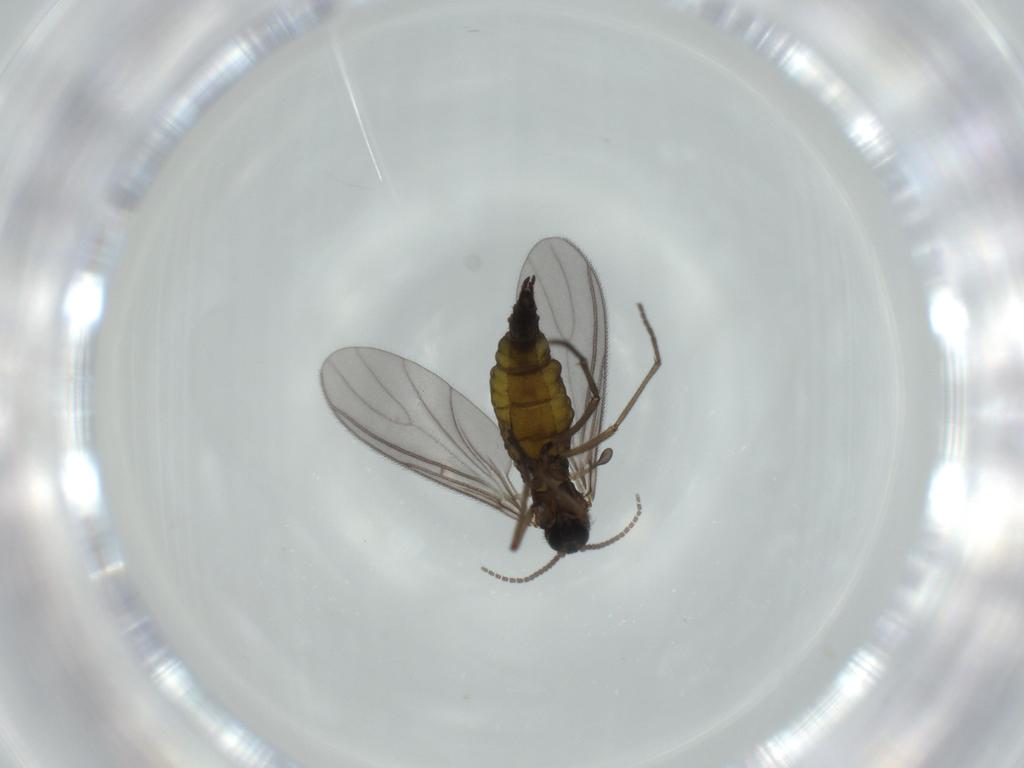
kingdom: Animalia
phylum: Arthropoda
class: Insecta
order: Diptera
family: Sciaridae
